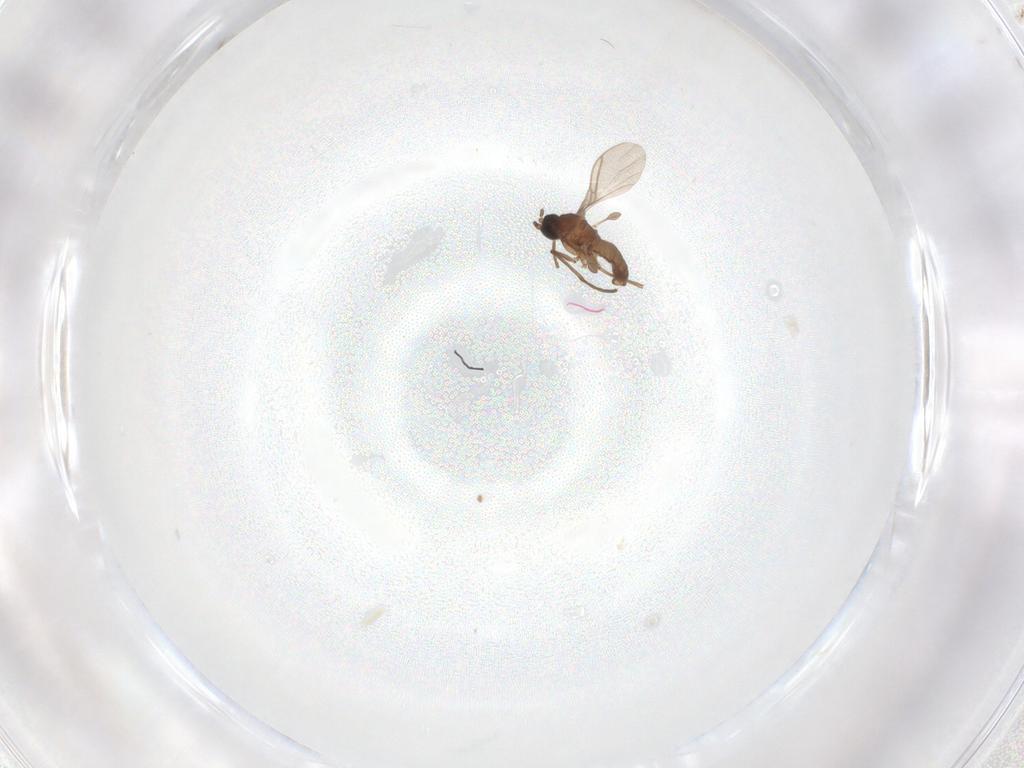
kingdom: Animalia
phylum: Arthropoda
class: Insecta
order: Diptera
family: Sciaridae
